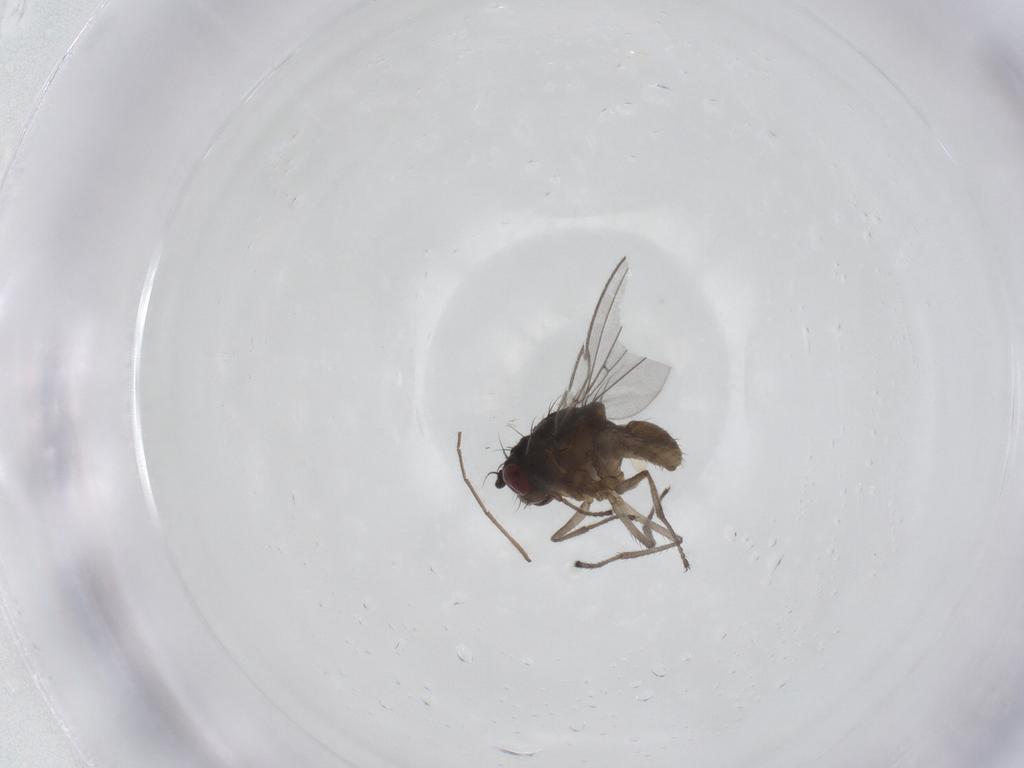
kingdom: Animalia
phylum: Arthropoda
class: Insecta
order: Diptera
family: Ephydridae
